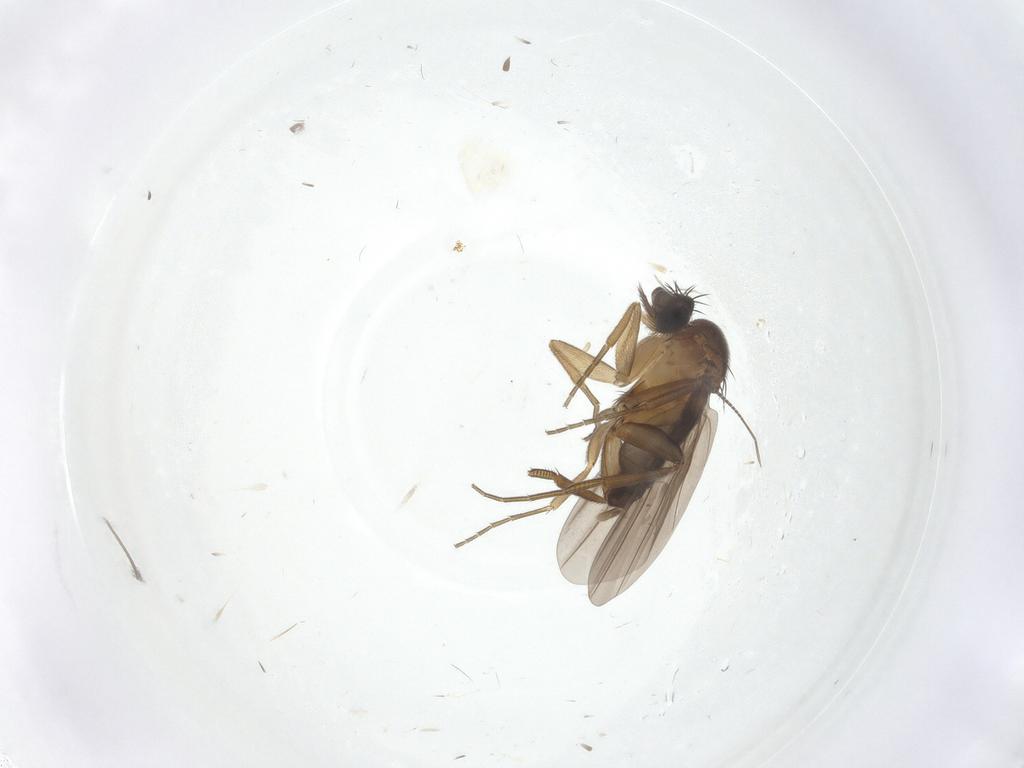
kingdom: Animalia
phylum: Arthropoda
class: Insecta
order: Diptera
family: Chironomidae
